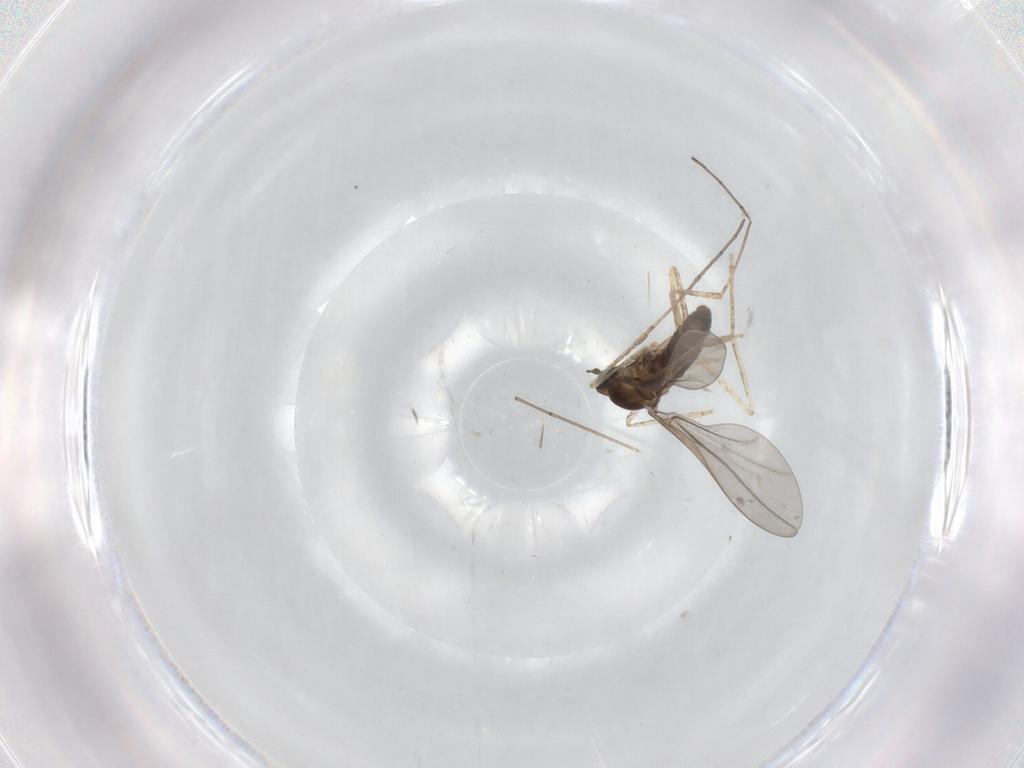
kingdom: Animalia
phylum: Arthropoda
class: Insecta
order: Diptera
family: Cecidomyiidae
